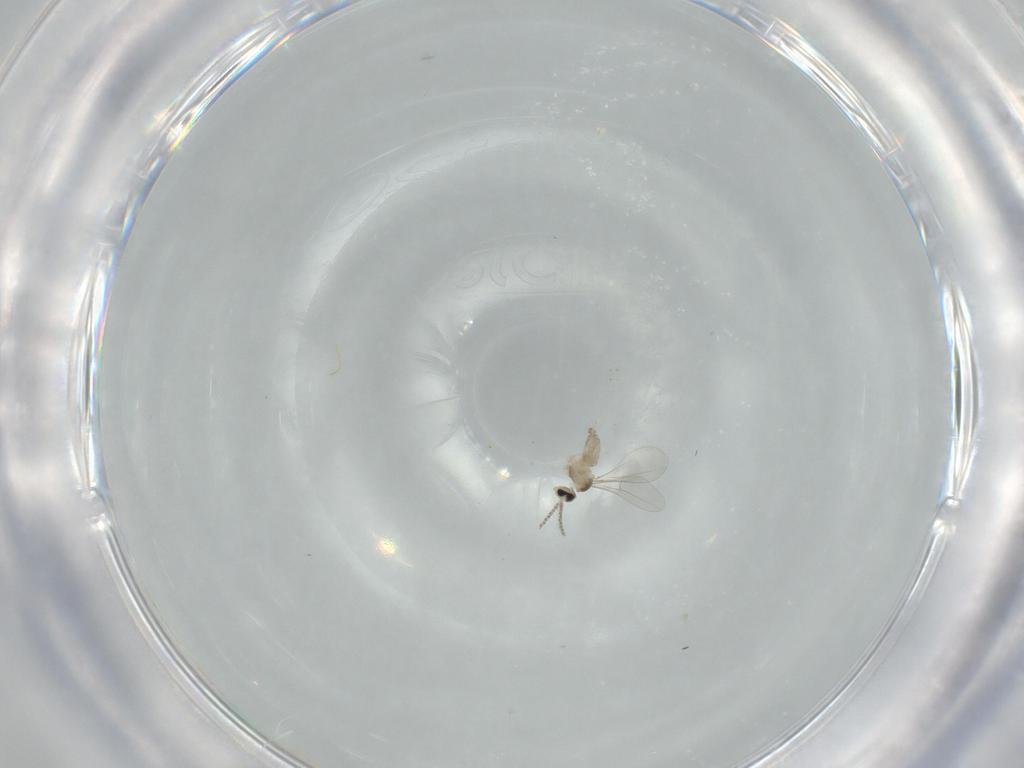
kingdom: Animalia
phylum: Arthropoda
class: Insecta
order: Diptera
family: Cecidomyiidae
